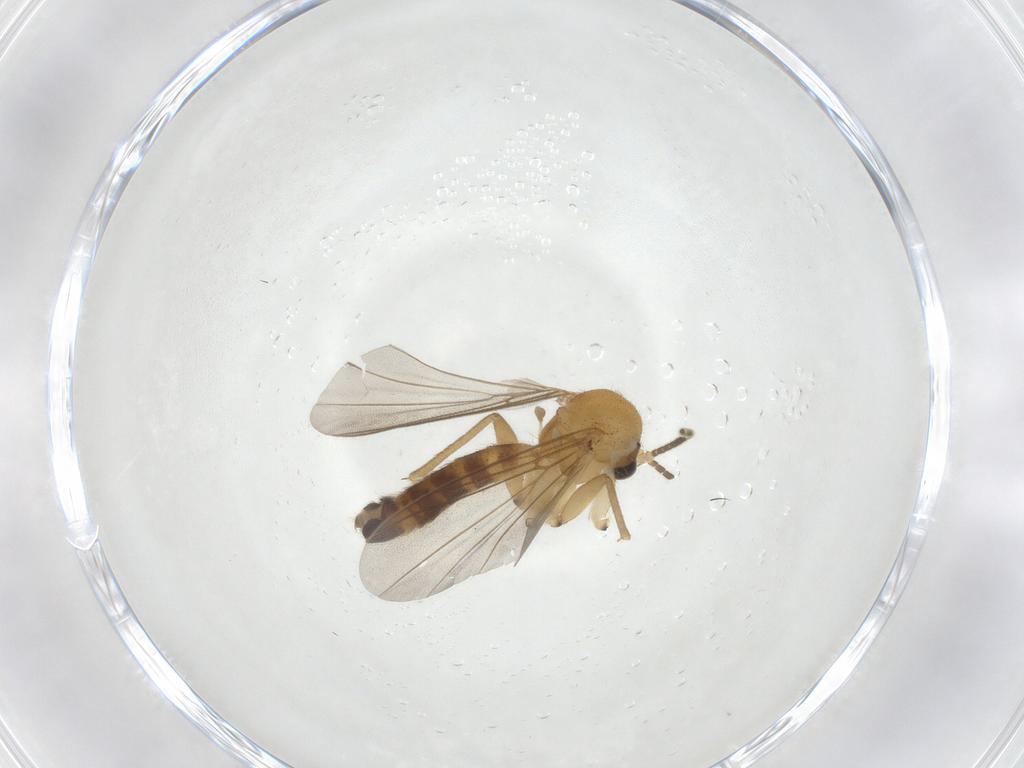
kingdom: Animalia
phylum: Arthropoda
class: Insecta
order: Diptera
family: Mycetophilidae
